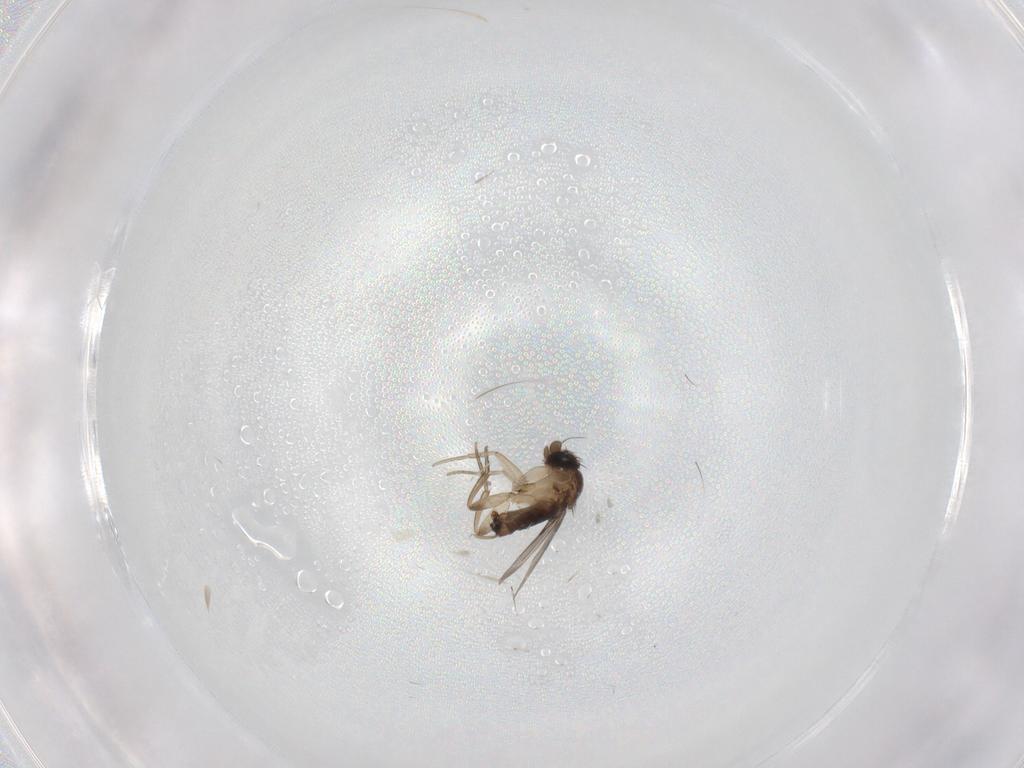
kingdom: Animalia
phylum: Arthropoda
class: Insecta
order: Diptera
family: Phoridae
